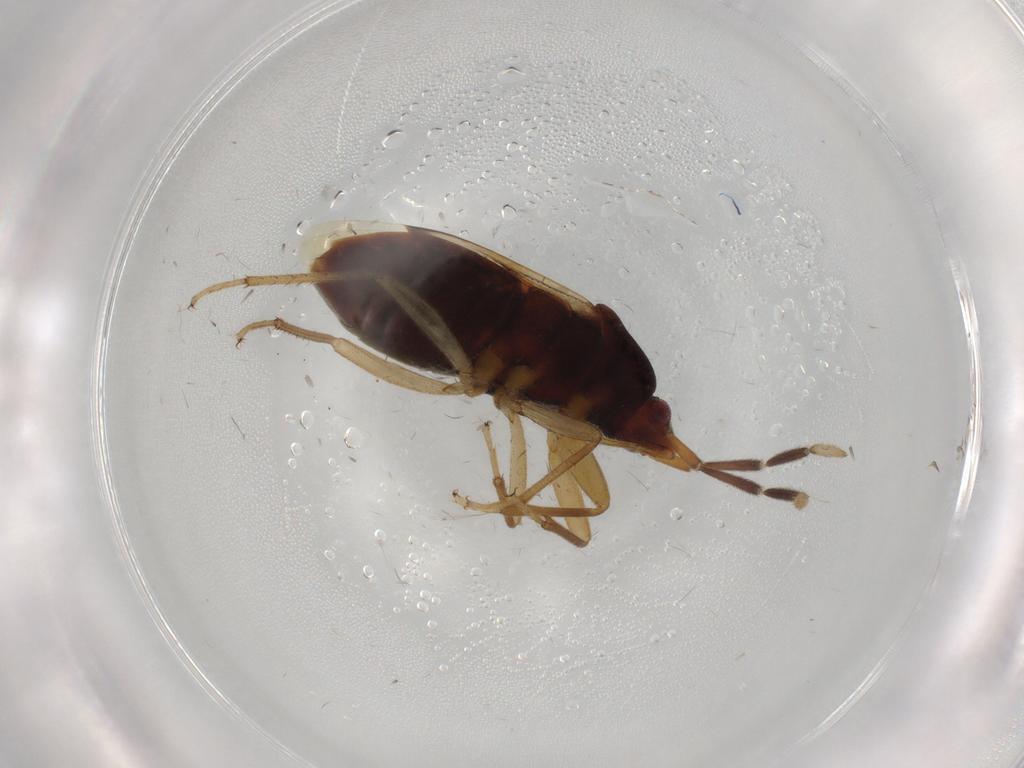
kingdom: Animalia
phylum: Arthropoda
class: Insecta
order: Hemiptera
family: Rhyparochromidae
